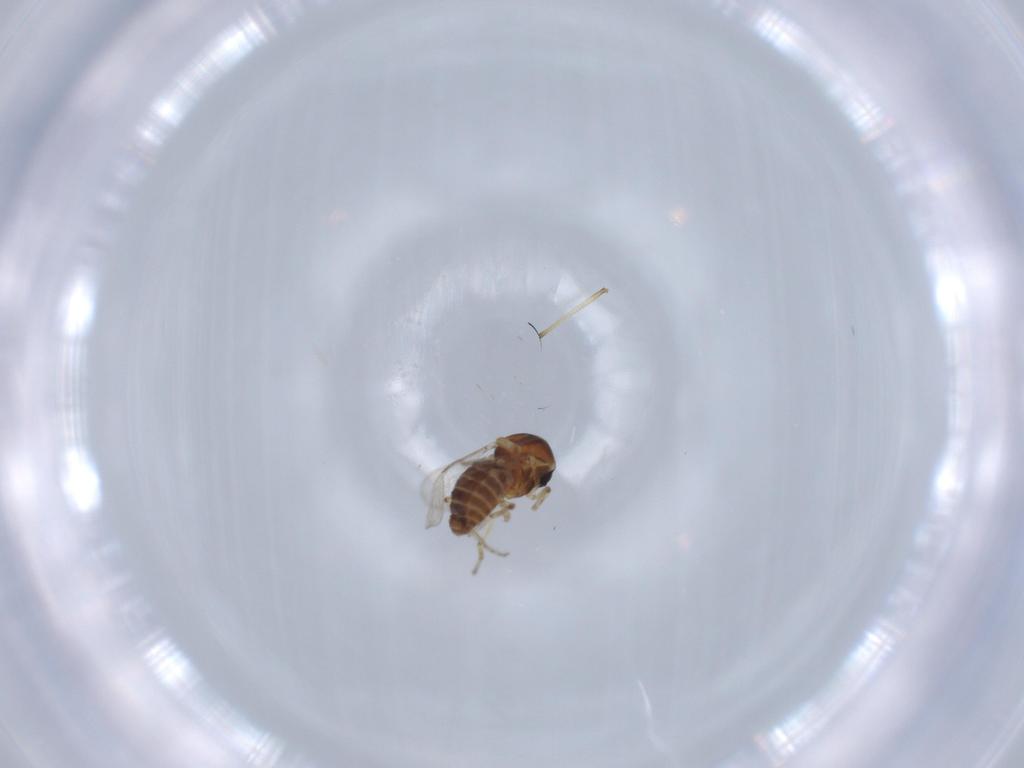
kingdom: Animalia
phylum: Arthropoda
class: Insecta
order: Diptera
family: Ceratopogonidae
